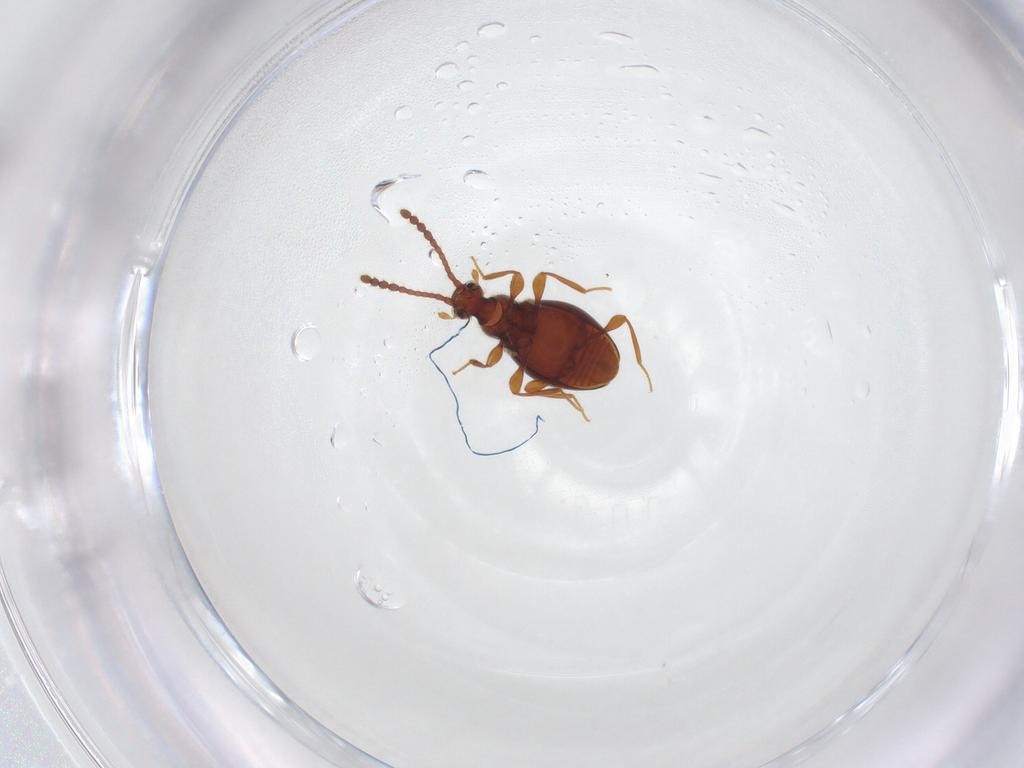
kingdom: Animalia
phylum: Arthropoda
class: Insecta
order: Coleoptera
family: Staphylinidae
